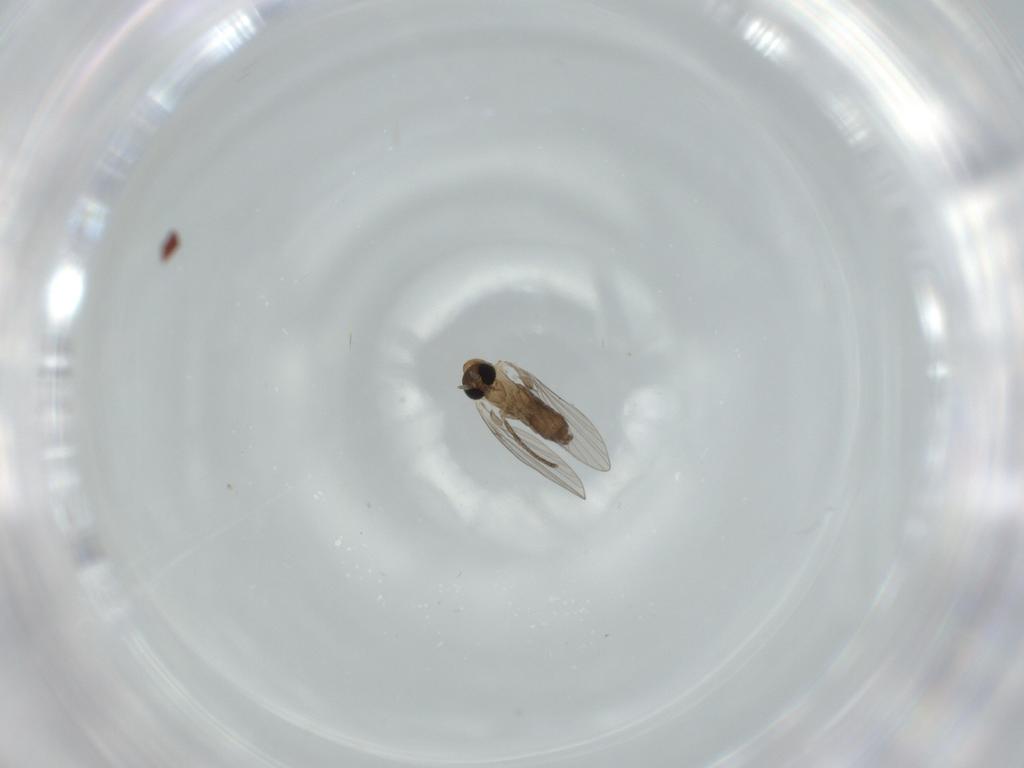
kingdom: Animalia
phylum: Arthropoda
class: Insecta
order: Diptera
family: Psychodidae
